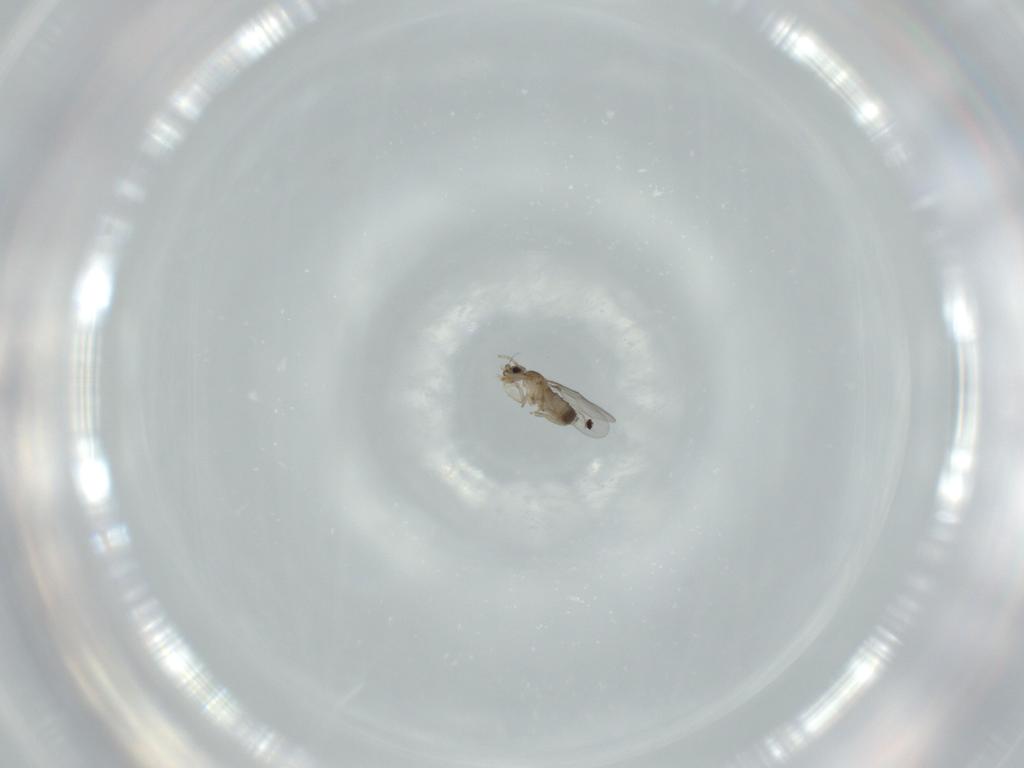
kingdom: Animalia
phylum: Arthropoda
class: Insecta
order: Diptera
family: Phoridae
